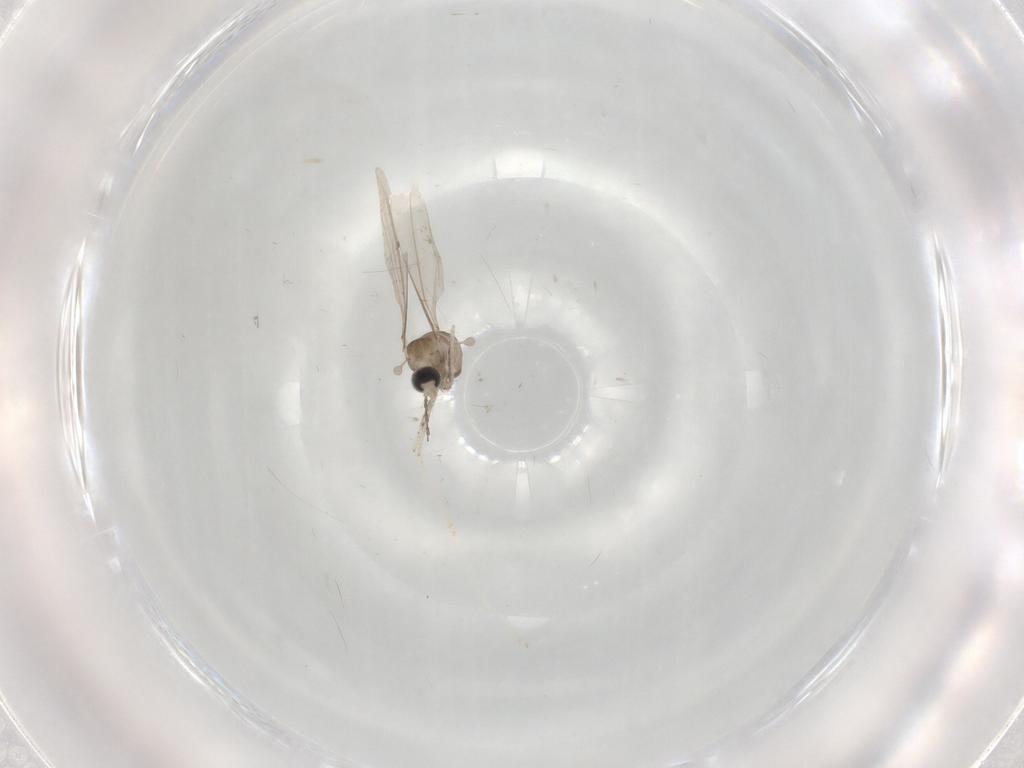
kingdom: Animalia
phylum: Arthropoda
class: Insecta
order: Diptera
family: Cecidomyiidae
